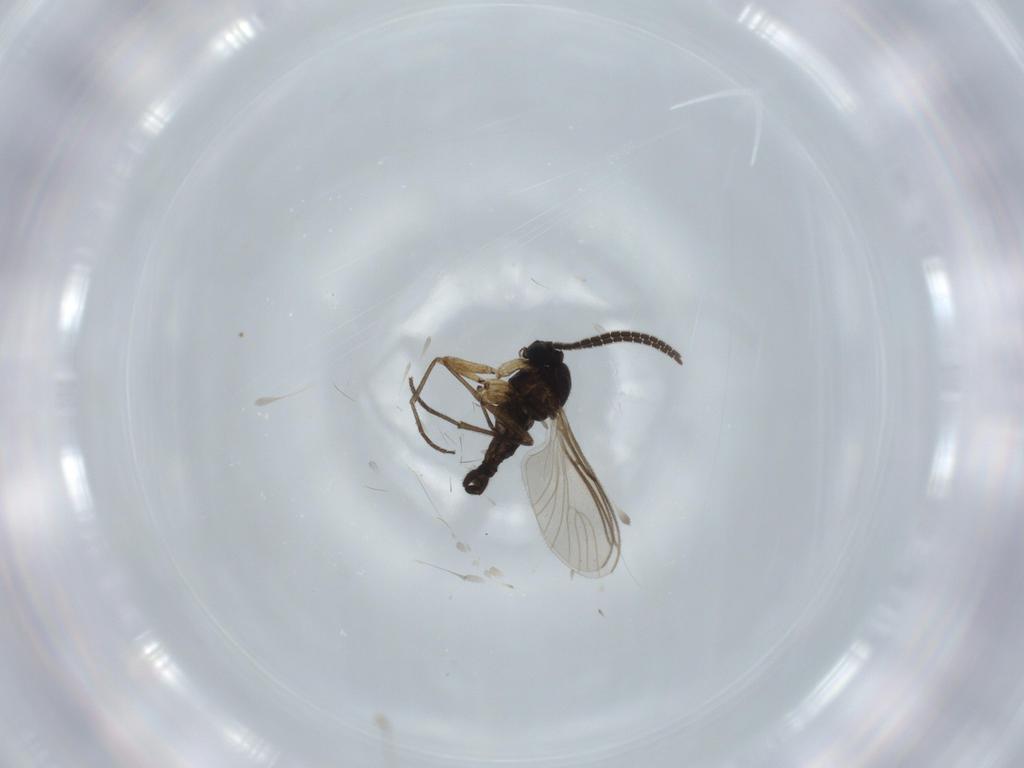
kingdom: Animalia
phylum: Arthropoda
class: Insecta
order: Diptera
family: Sciaridae
